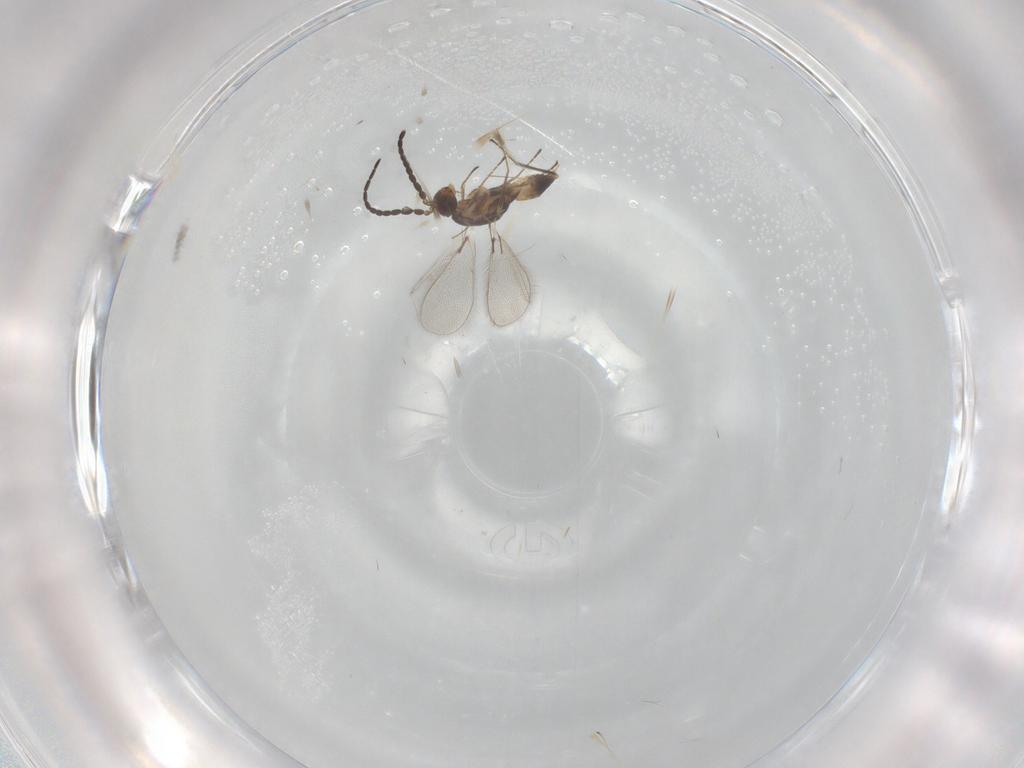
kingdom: Animalia
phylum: Arthropoda
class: Insecta
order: Hymenoptera
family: Mymaridae
